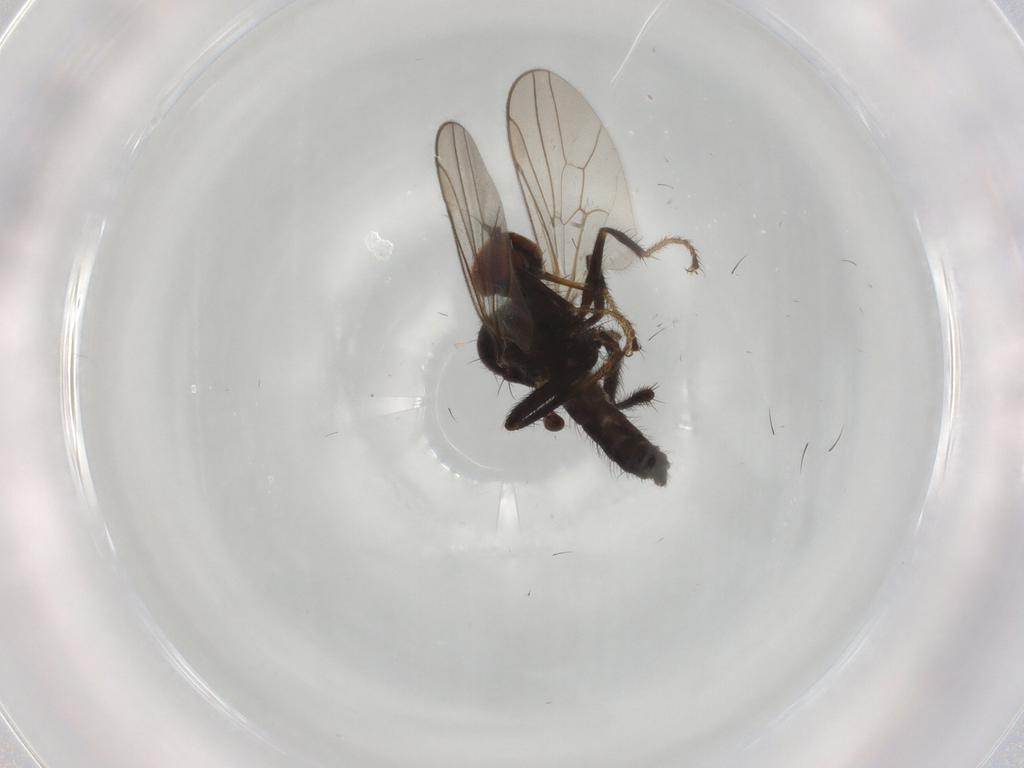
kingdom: Animalia
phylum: Arthropoda
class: Insecta
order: Diptera
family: Hybotidae
